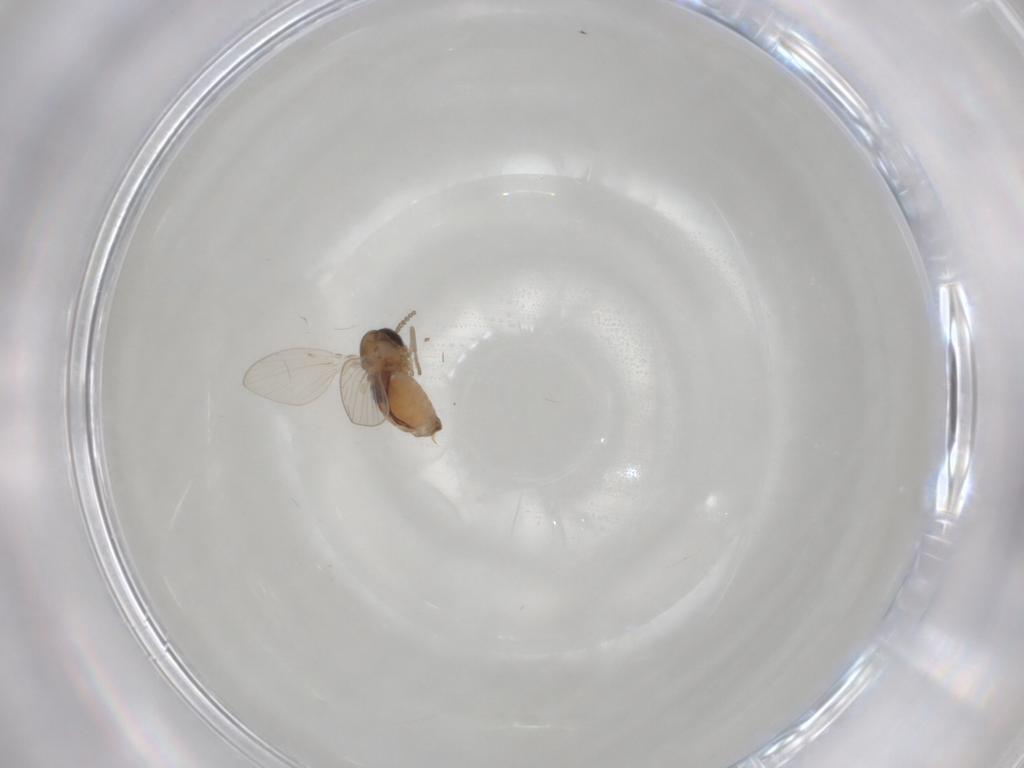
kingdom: Animalia
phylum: Arthropoda
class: Insecta
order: Diptera
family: Psychodidae
